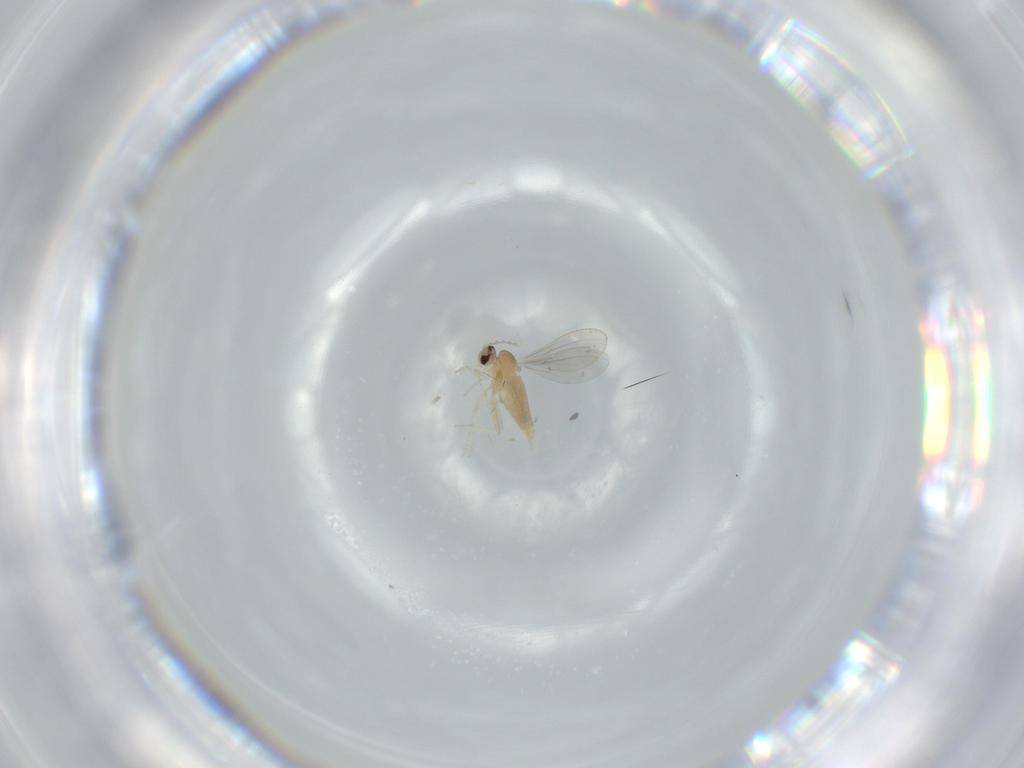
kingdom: Animalia
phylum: Arthropoda
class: Insecta
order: Diptera
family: Cecidomyiidae
